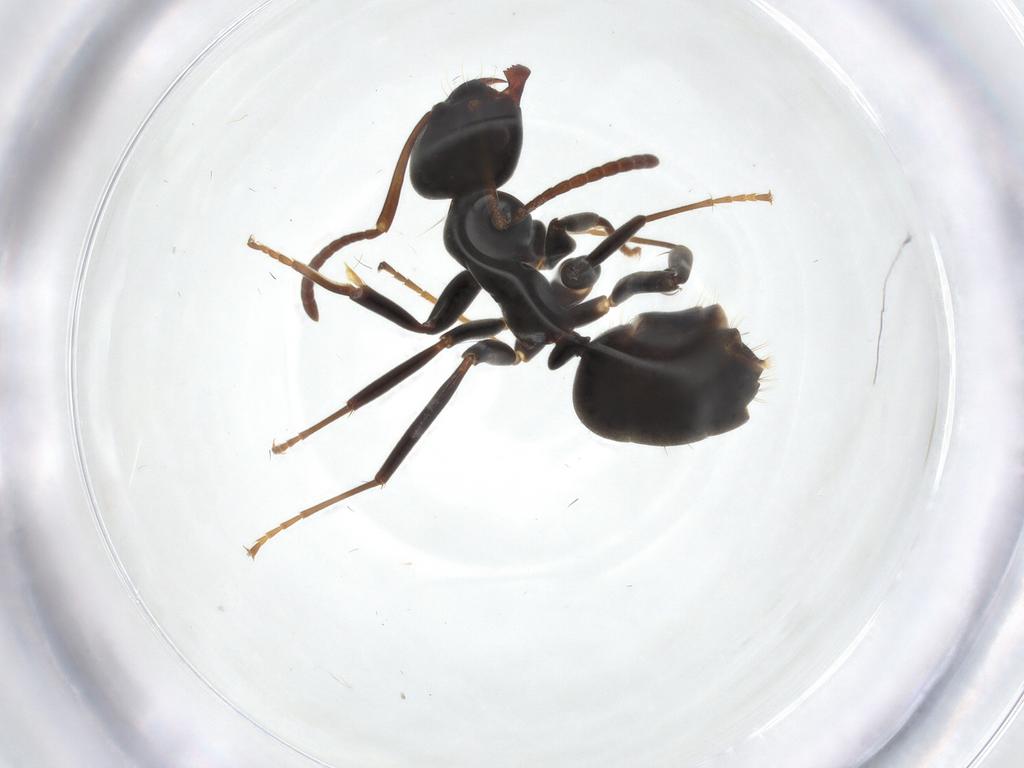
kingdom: Animalia
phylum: Arthropoda
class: Insecta
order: Hymenoptera
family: Formicidae
